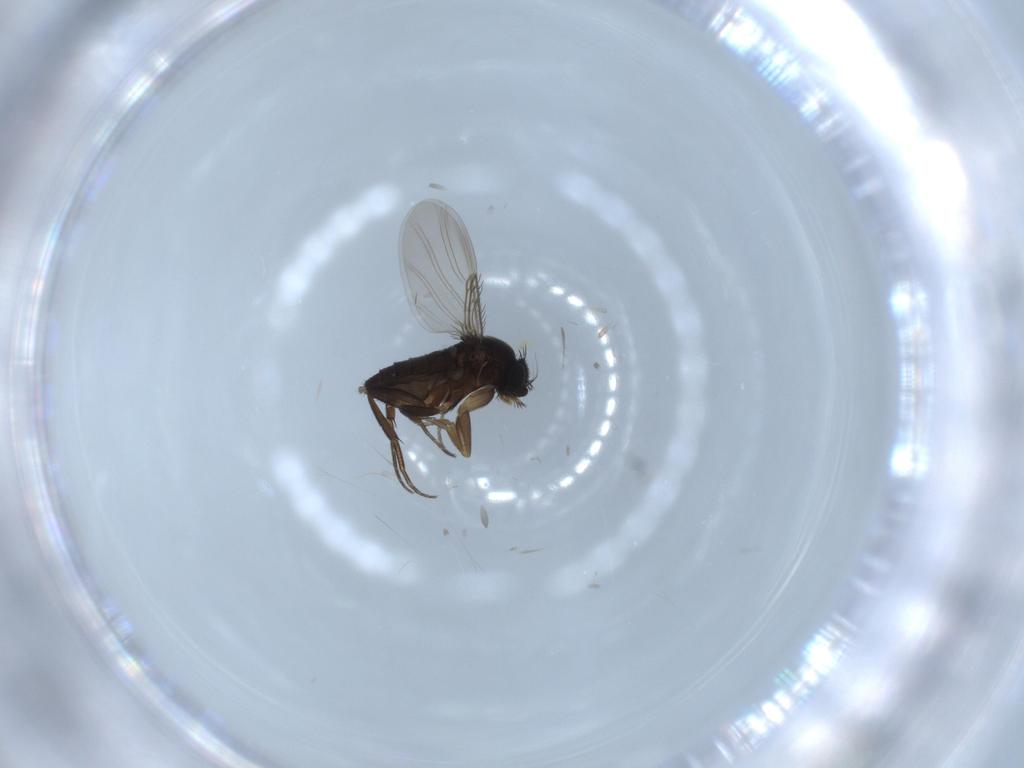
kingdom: Animalia
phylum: Arthropoda
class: Insecta
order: Diptera
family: Phoridae
